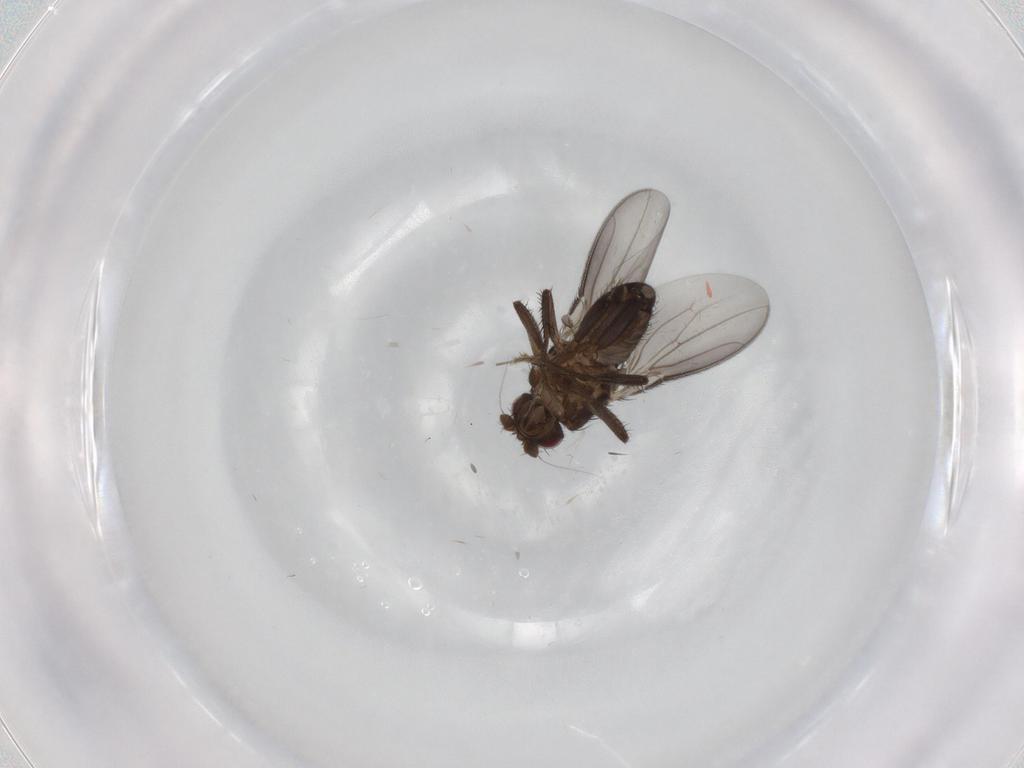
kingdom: Animalia
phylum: Arthropoda
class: Insecta
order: Diptera
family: Sphaeroceridae
